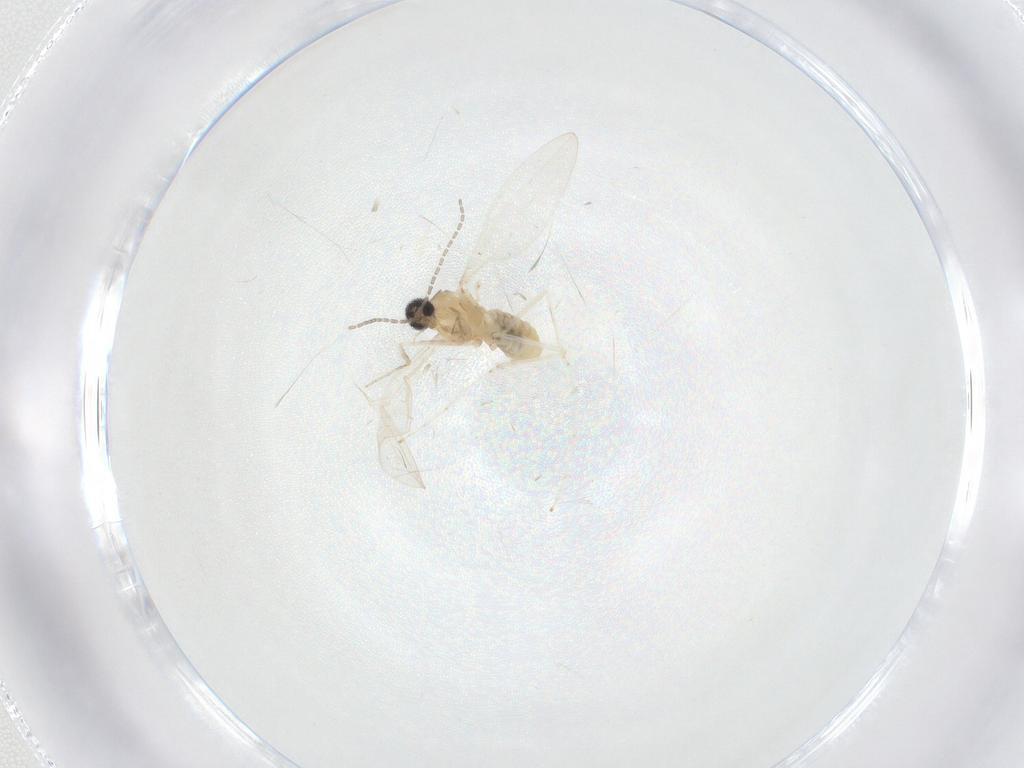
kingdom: Animalia
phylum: Arthropoda
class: Insecta
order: Diptera
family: Cecidomyiidae
